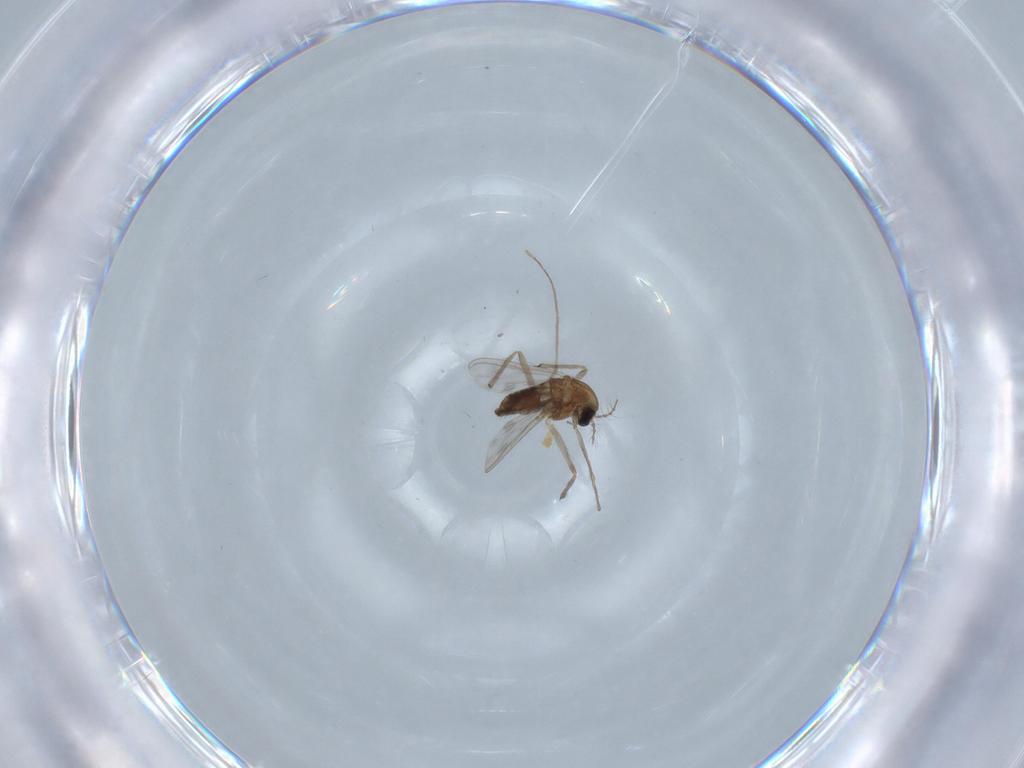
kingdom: Animalia
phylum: Arthropoda
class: Insecta
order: Diptera
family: Chironomidae
